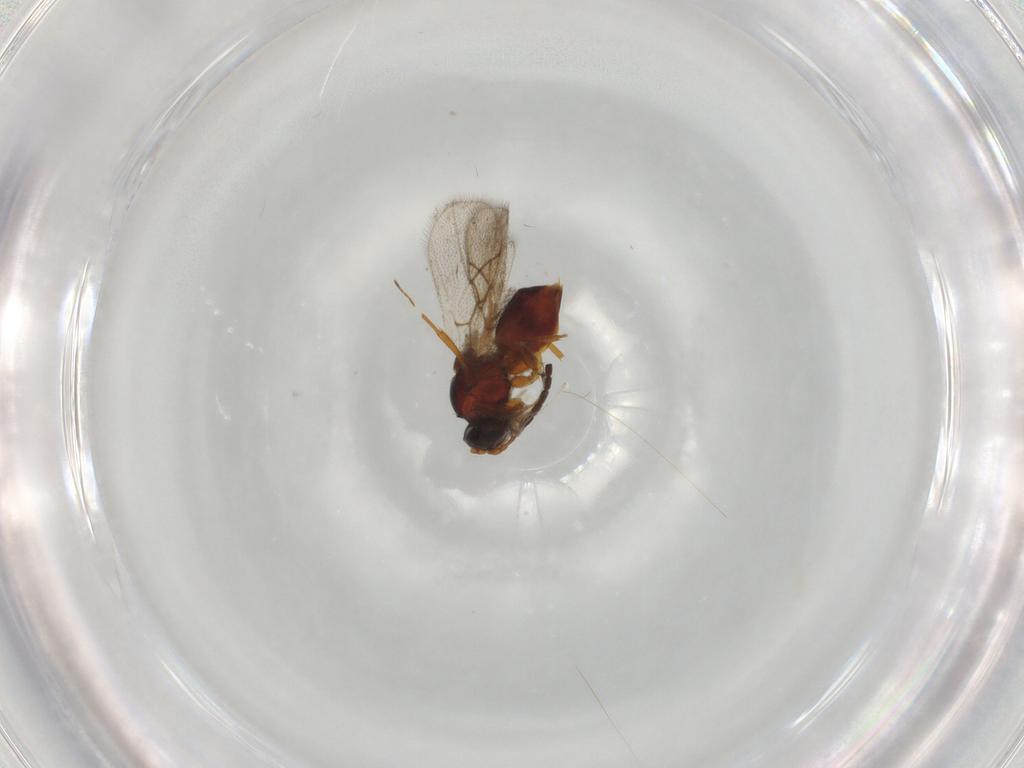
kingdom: Animalia
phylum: Arthropoda
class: Insecta
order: Hymenoptera
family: Figitidae
